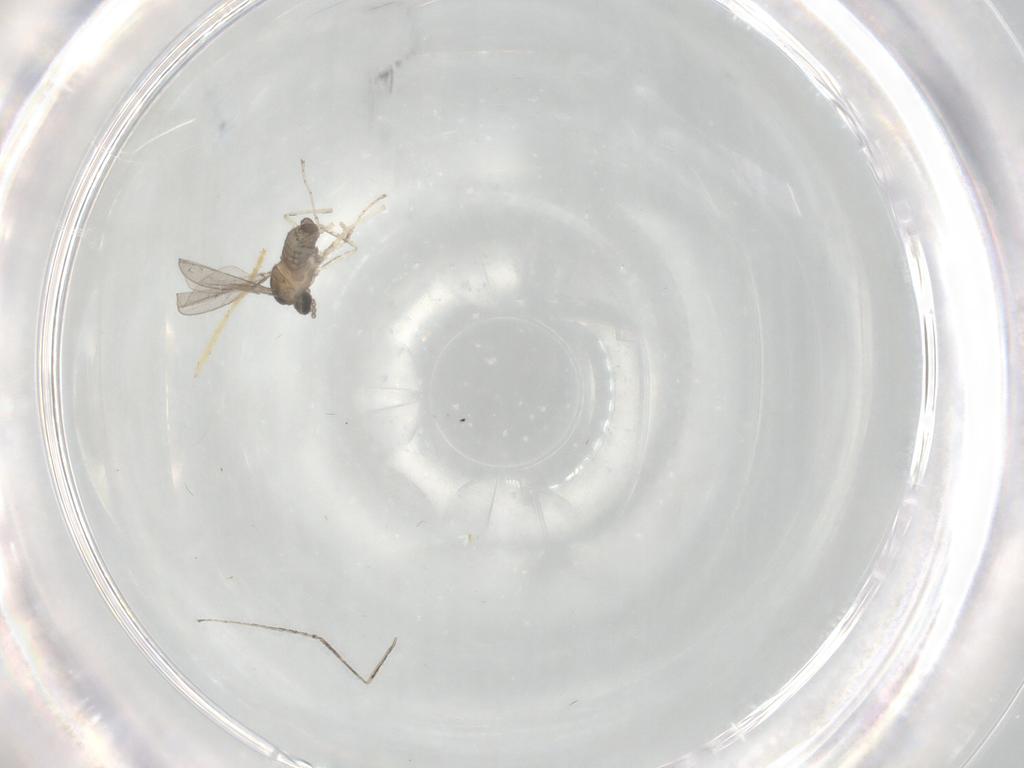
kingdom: Animalia
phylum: Arthropoda
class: Insecta
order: Diptera
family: Cecidomyiidae
